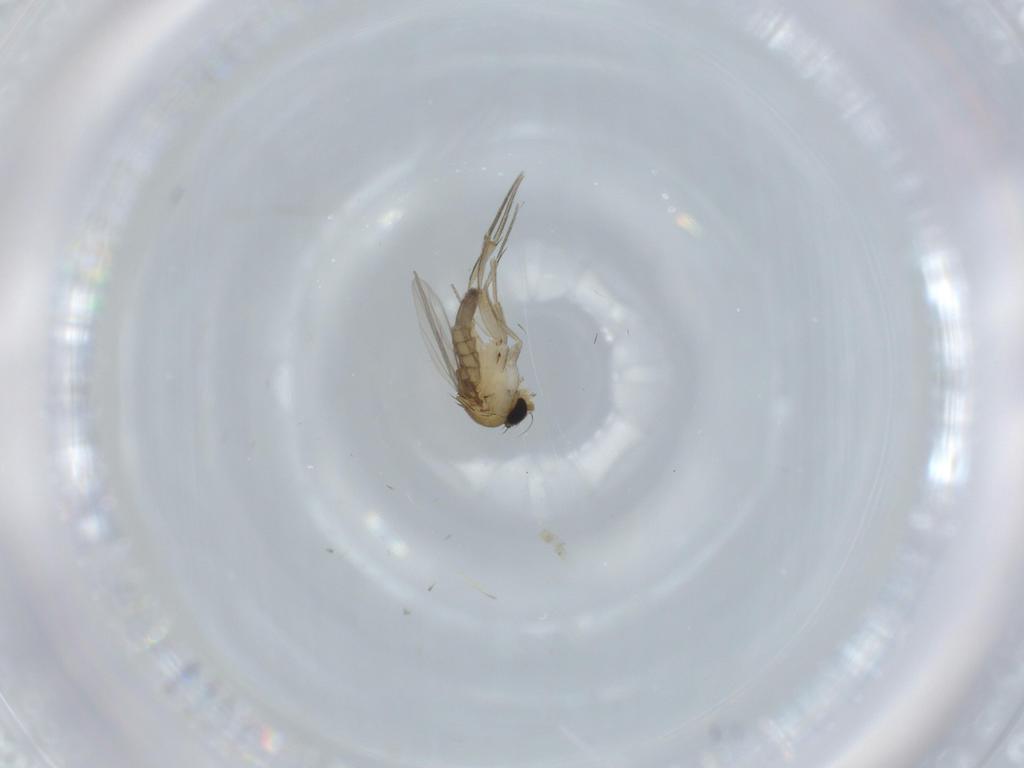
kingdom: Animalia
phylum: Arthropoda
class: Insecta
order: Diptera
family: Phoridae
